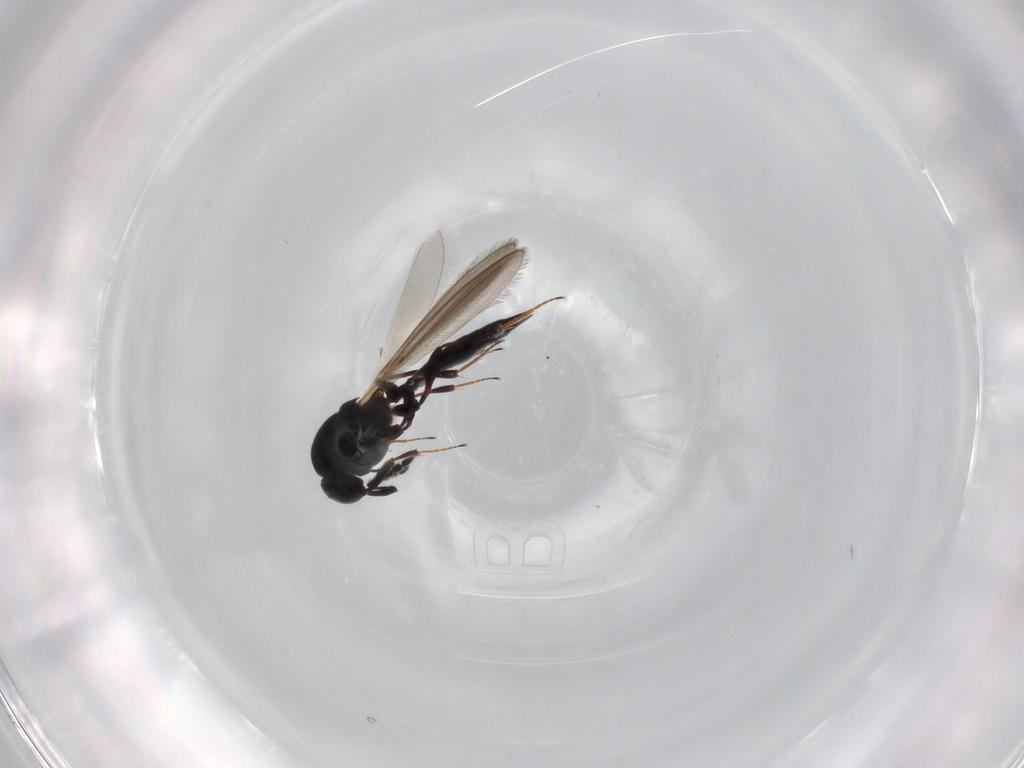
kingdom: Animalia
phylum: Arthropoda
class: Insecta
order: Hymenoptera
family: Platygastridae
